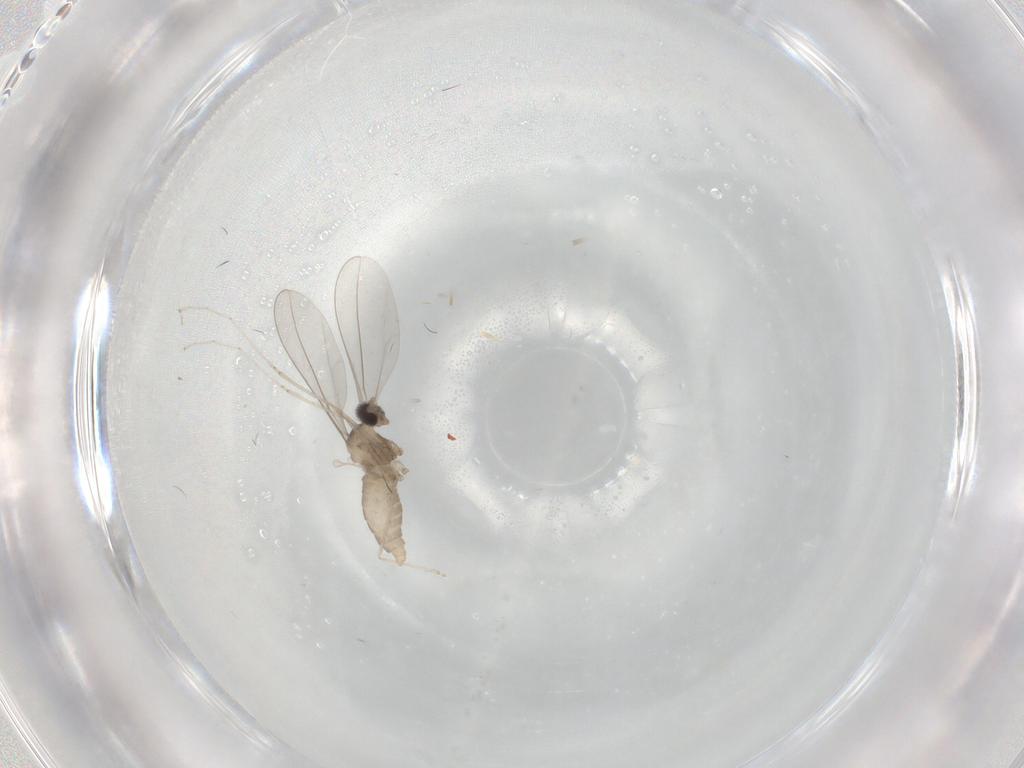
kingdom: Animalia
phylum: Arthropoda
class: Insecta
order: Diptera
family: Cecidomyiidae
